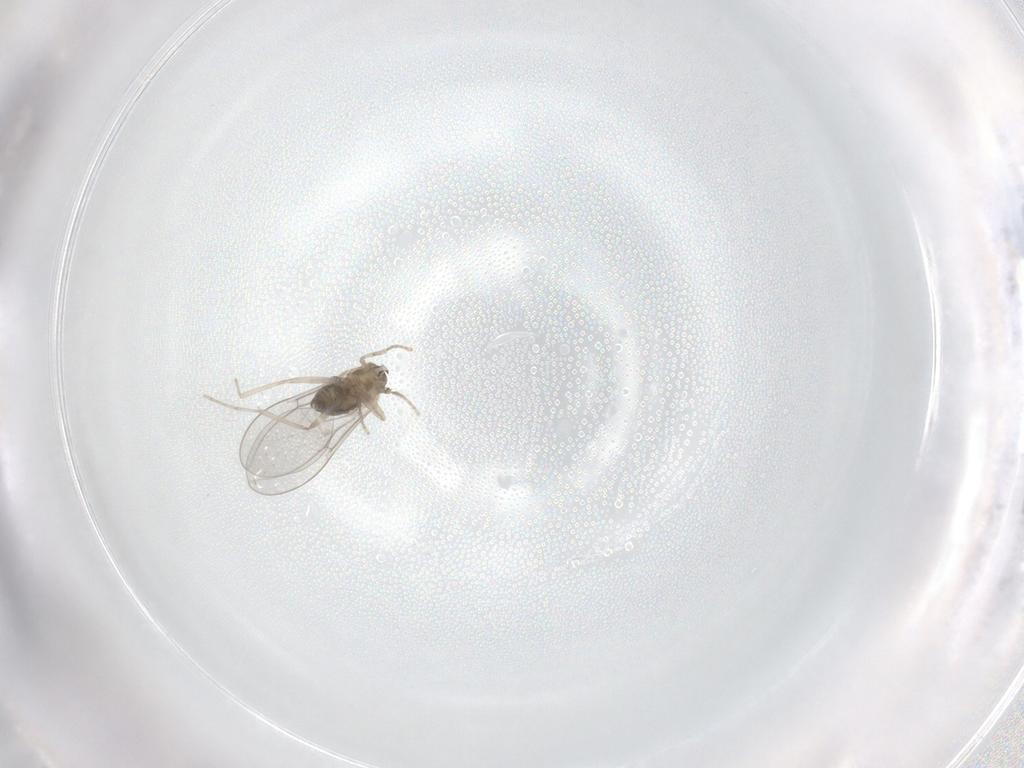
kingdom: Animalia
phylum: Arthropoda
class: Insecta
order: Diptera
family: Cecidomyiidae
